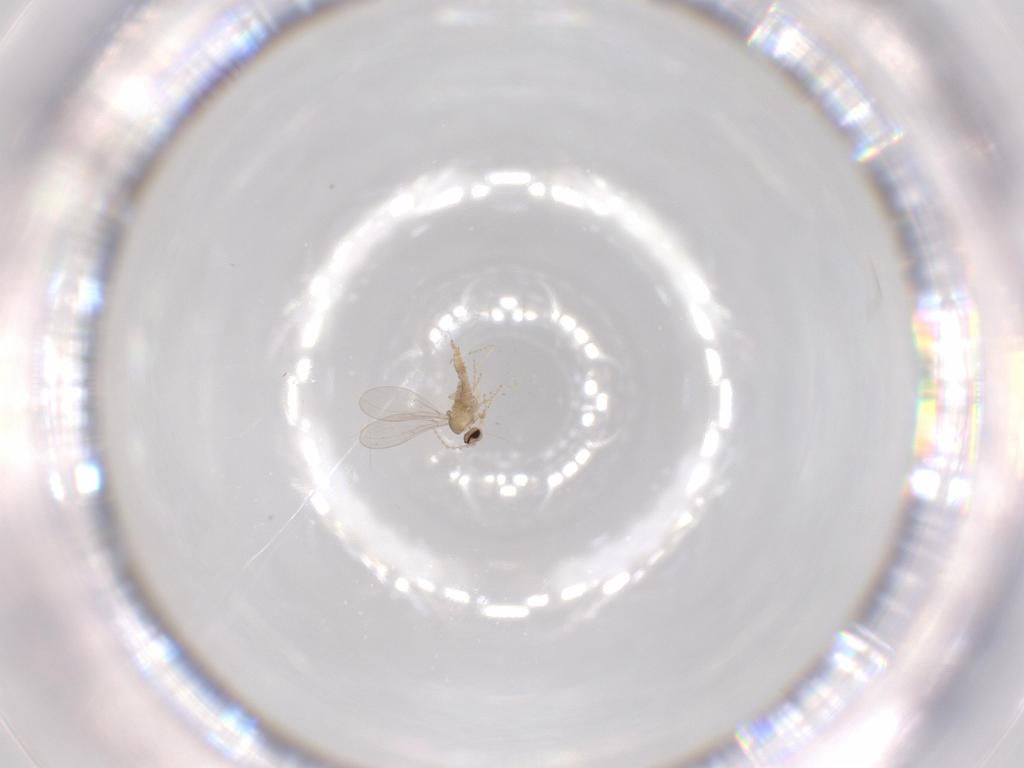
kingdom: Animalia
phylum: Arthropoda
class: Insecta
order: Diptera
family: Cecidomyiidae
